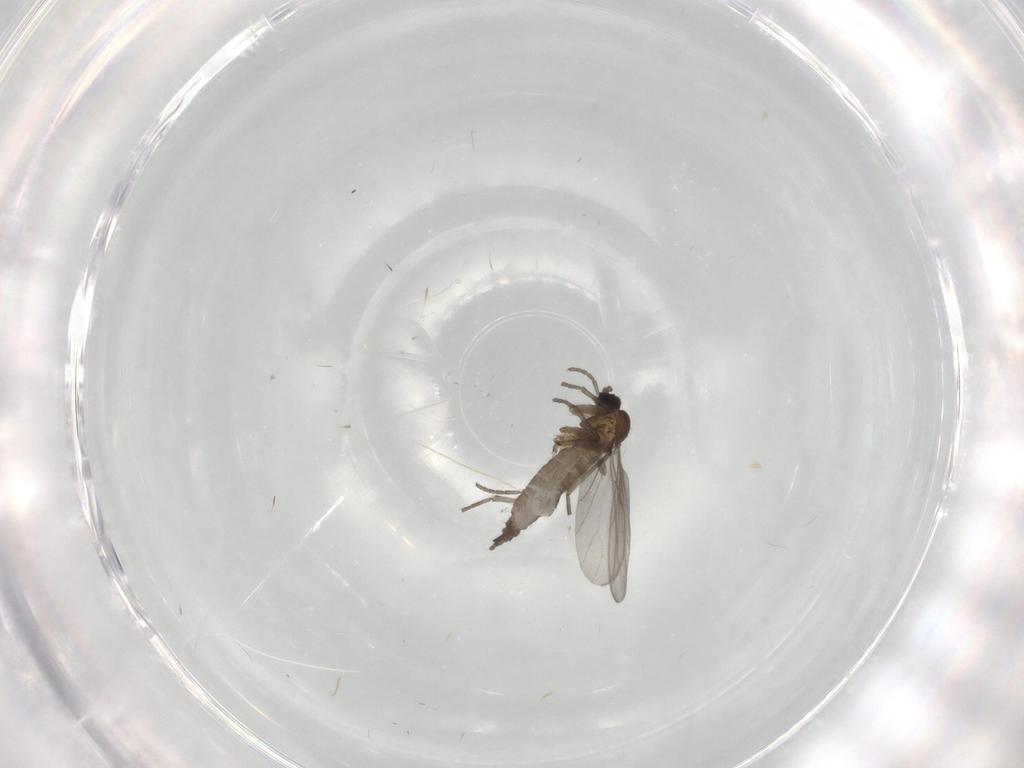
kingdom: Animalia
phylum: Arthropoda
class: Insecta
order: Diptera
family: Sciaridae
